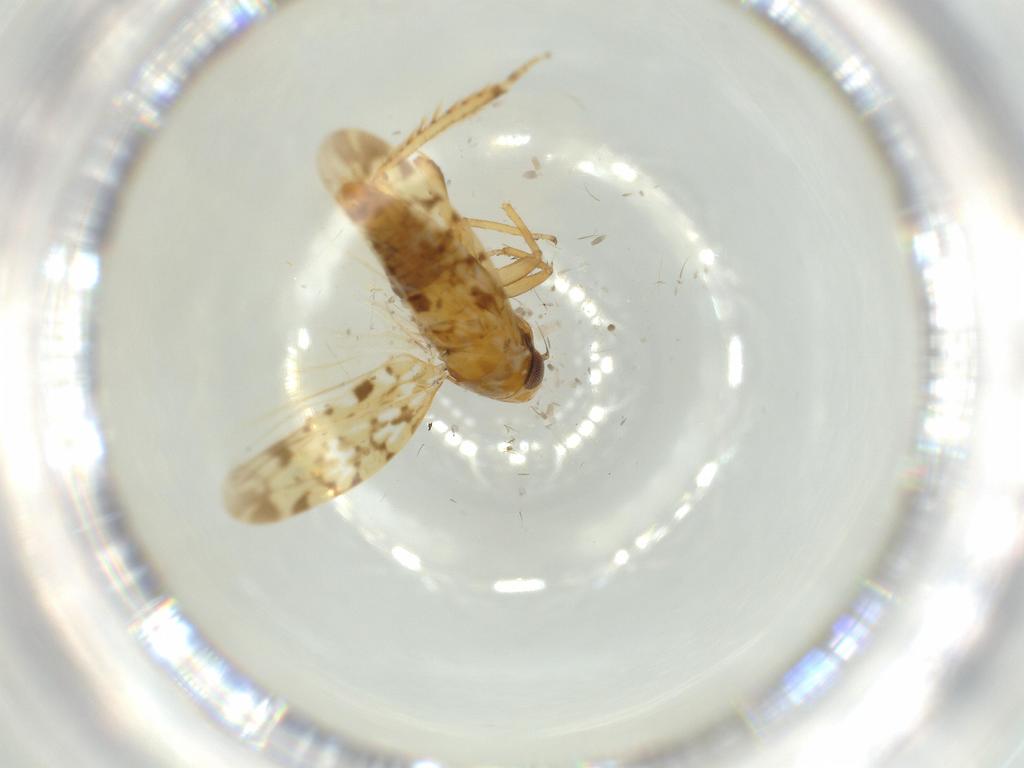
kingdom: Animalia
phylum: Arthropoda
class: Insecta
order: Hemiptera
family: Cicadellidae
